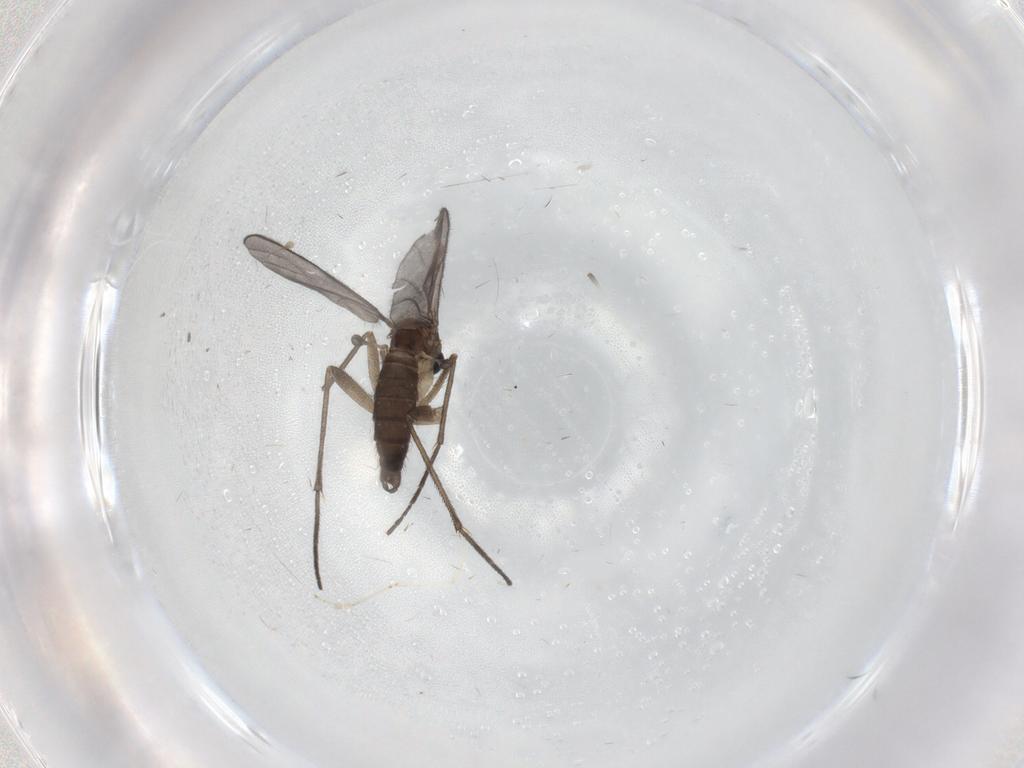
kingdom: Animalia
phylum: Arthropoda
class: Insecta
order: Diptera
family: Sciaridae
